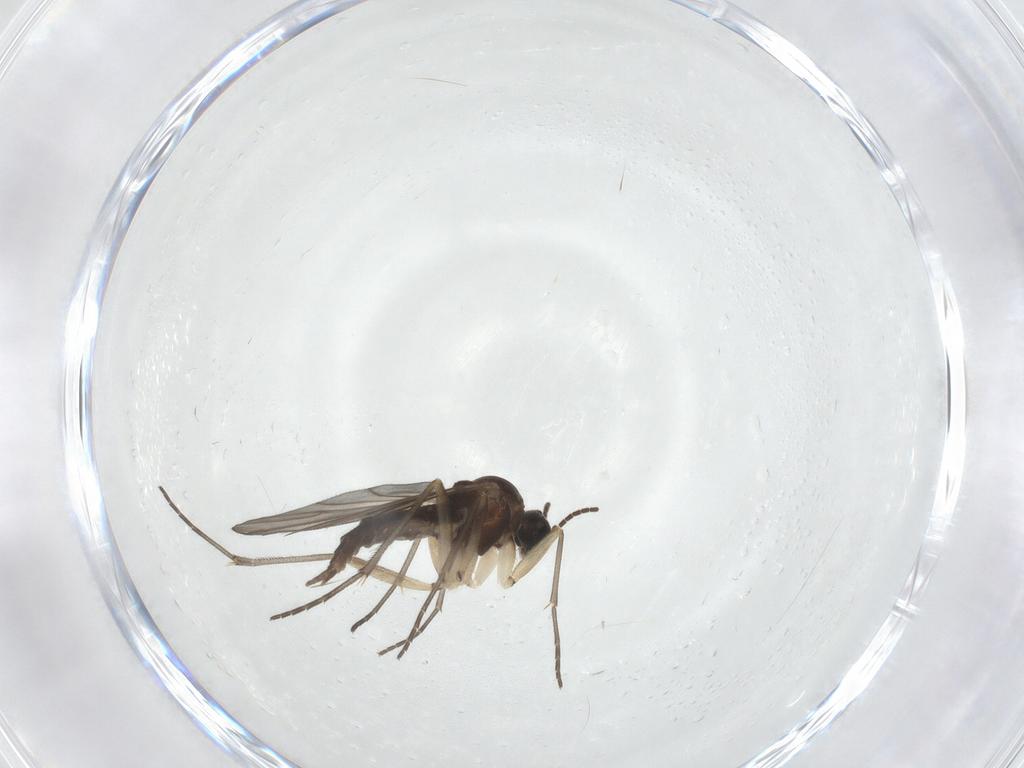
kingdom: Animalia
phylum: Arthropoda
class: Insecta
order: Diptera
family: Sciaridae
